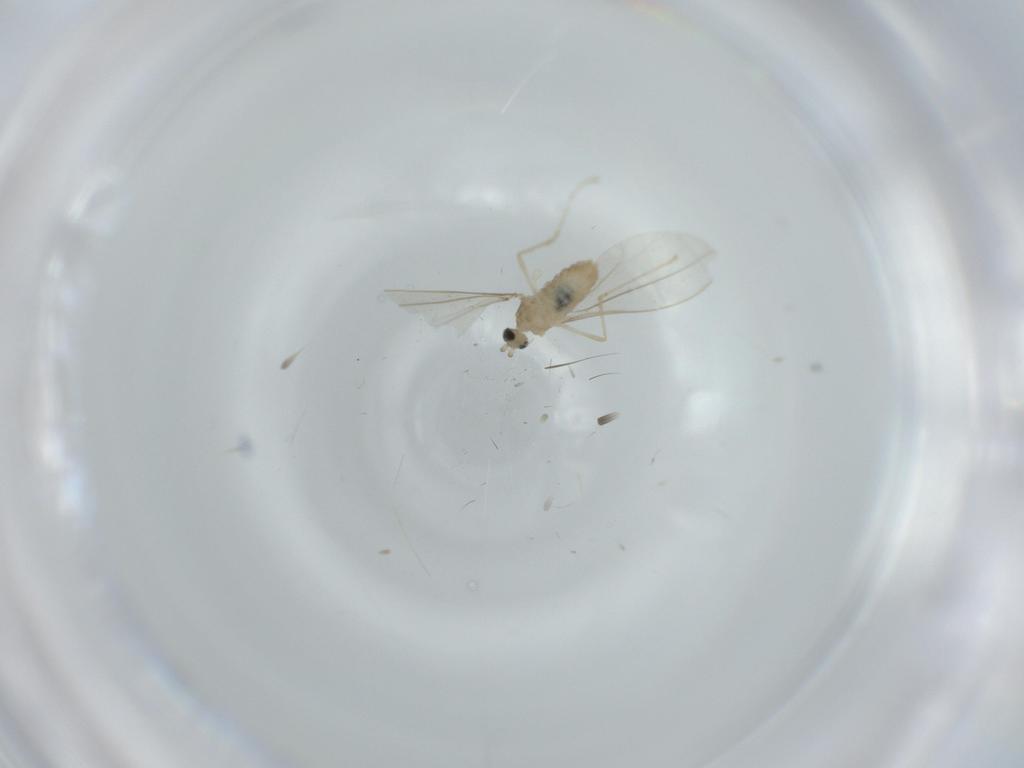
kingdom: Animalia
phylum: Arthropoda
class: Insecta
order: Diptera
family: Cecidomyiidae
